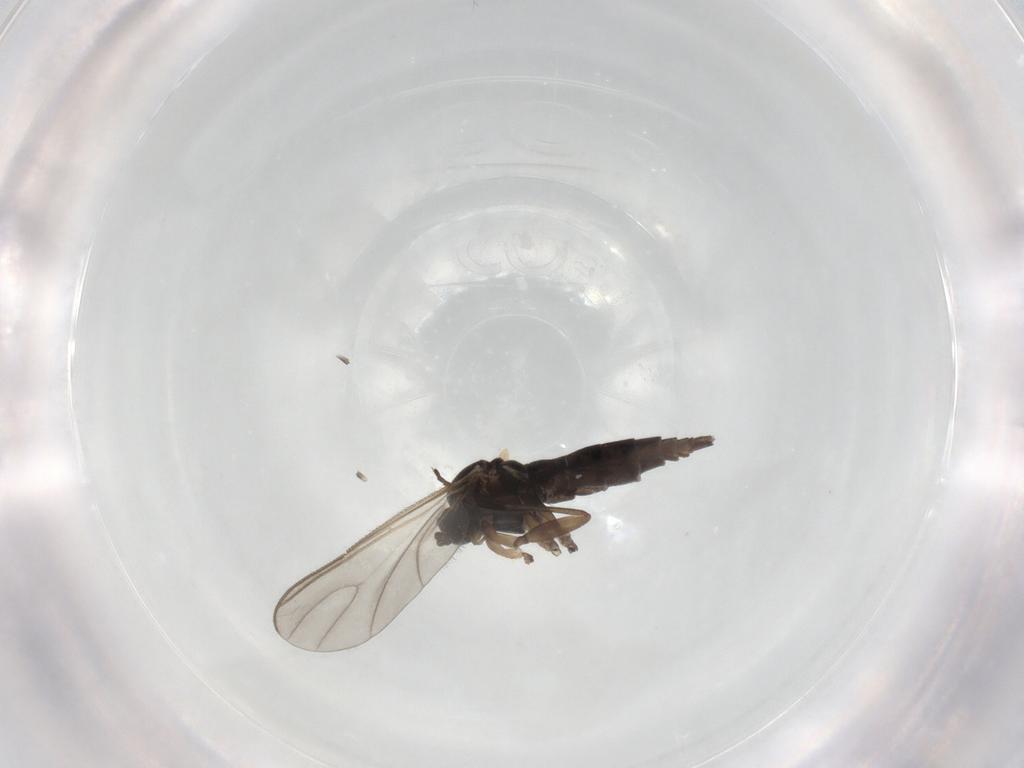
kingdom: Animalia
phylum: Arthropoda
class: Insecta
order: Diptera
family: Sciaridae
